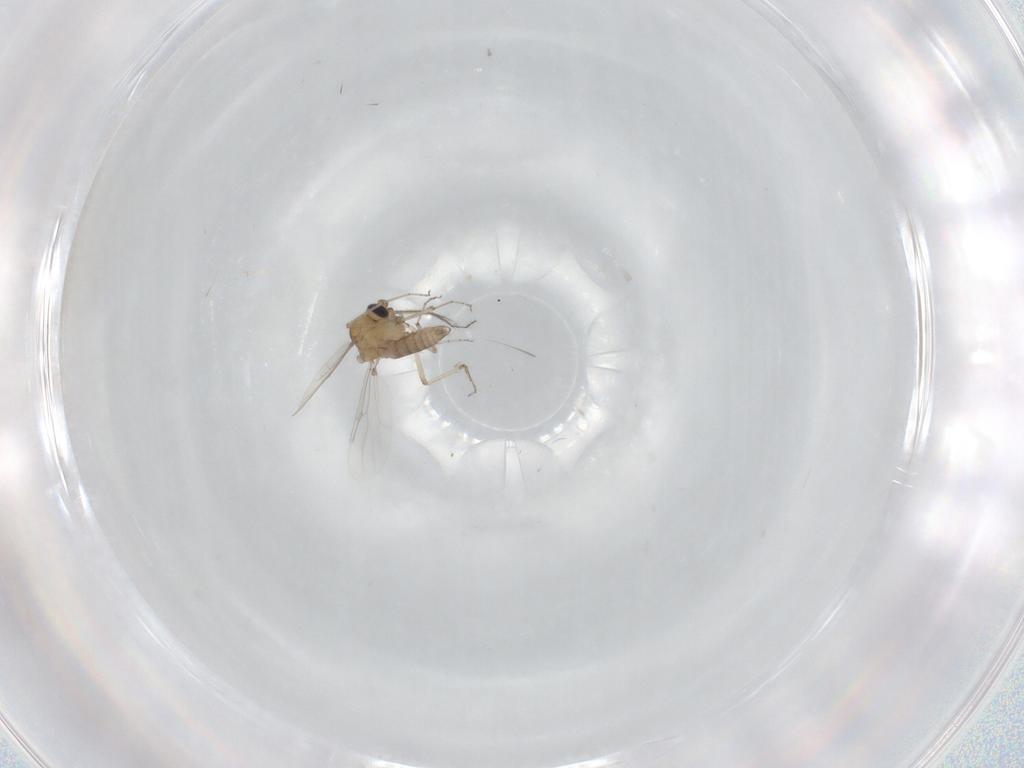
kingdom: Animalia
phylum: Arthropoda
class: Insecta
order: Diptera
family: Ceratopogonidae
